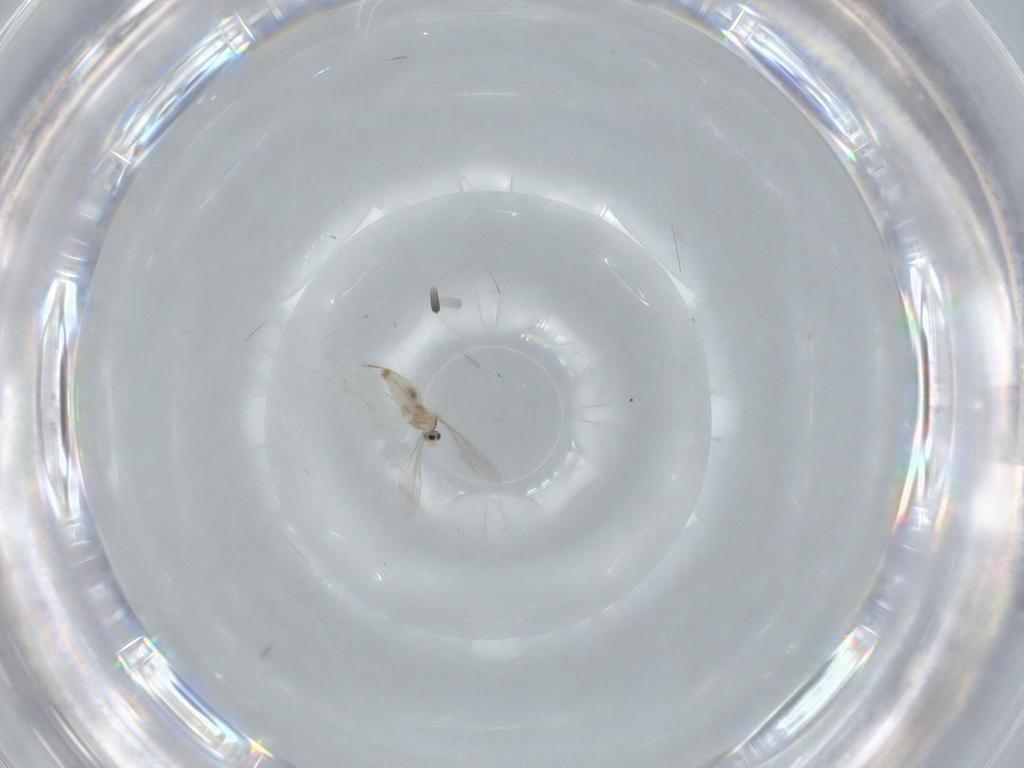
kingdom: Animalia
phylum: Arthropoda
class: Insecta
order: Diptera
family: Cecidomyiidae
